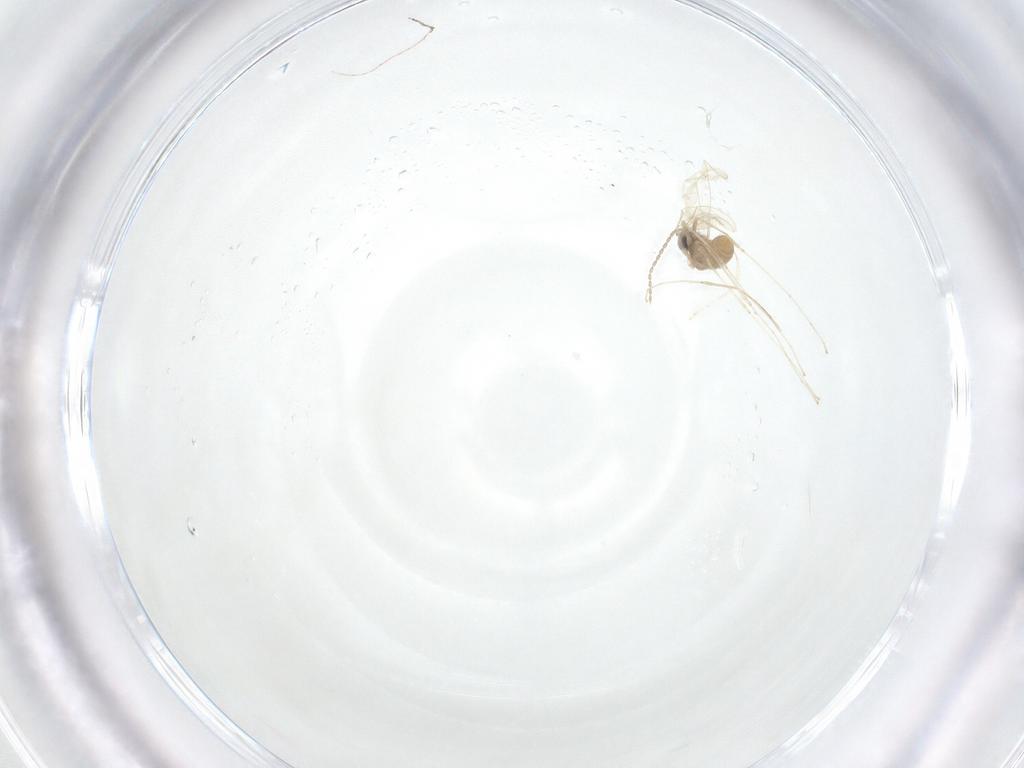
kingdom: Animalia
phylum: Arthropoda
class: Insecta
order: Diptera
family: Cecidomyiidae
